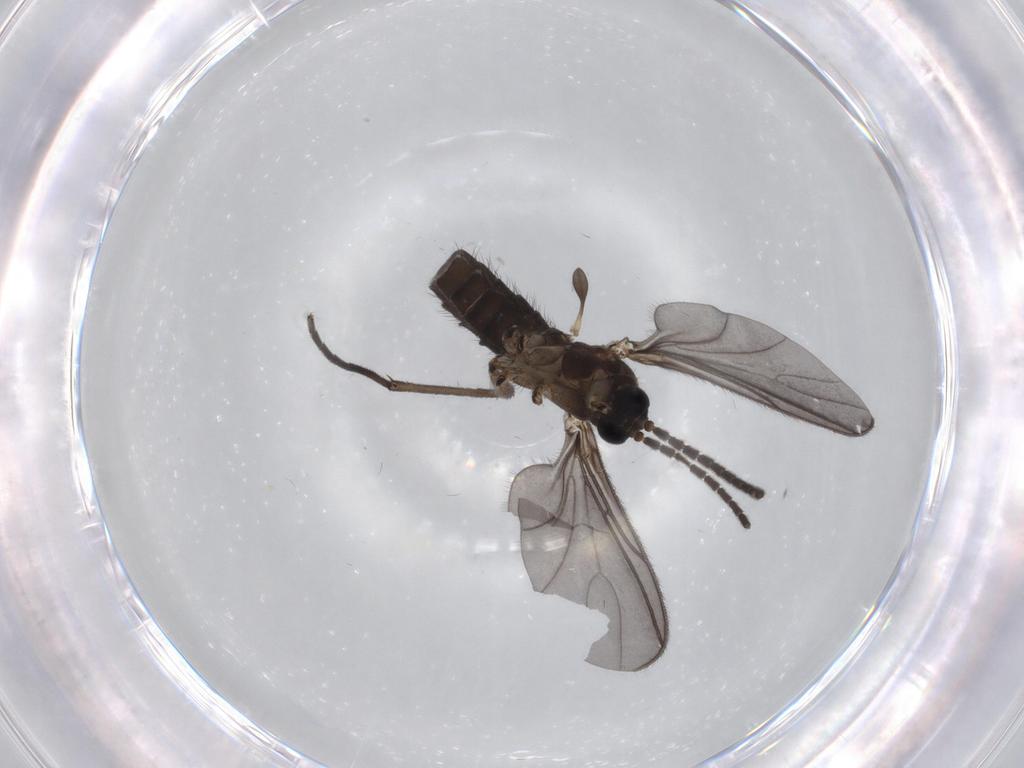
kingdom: Animalia
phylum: Arthropoda
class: Insecta
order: Diptera
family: Sciaridae
